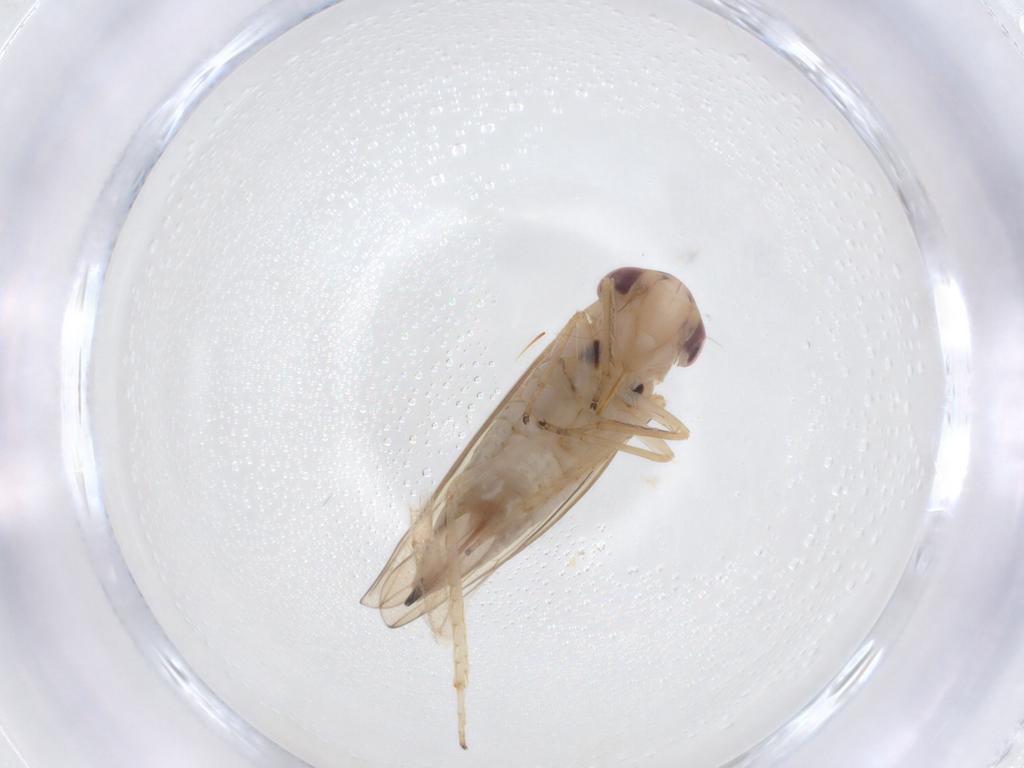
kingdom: Animalia
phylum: Arthropoda
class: Insecta
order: Hemiptera
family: Cicadellidae
